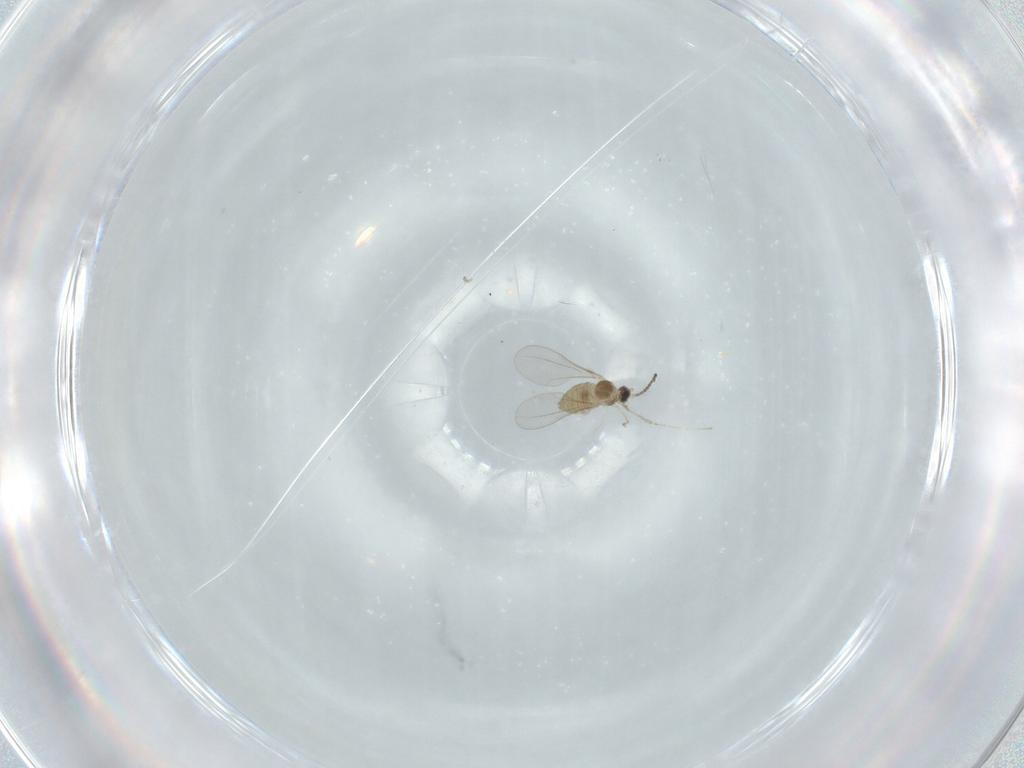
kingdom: Animalia
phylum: Arthropoda
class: Insecta
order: Diptera
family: Cecidomyiidae
